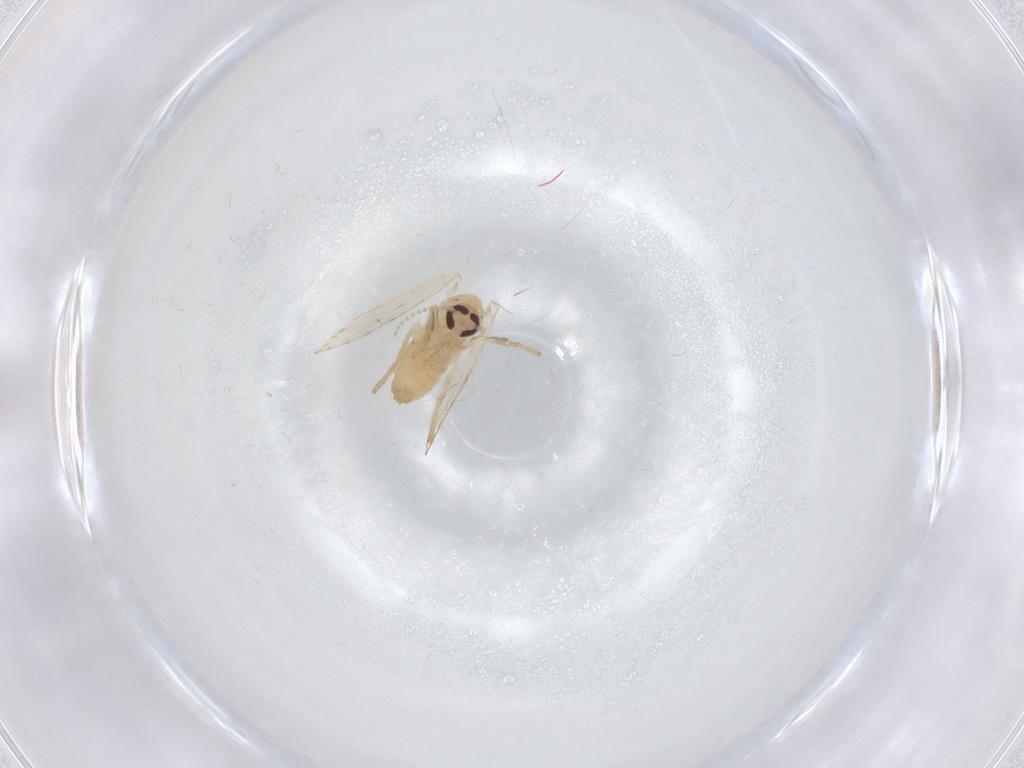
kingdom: Animalia
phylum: Arthropoda
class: Insecta
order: Diptera
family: Psychodidae
